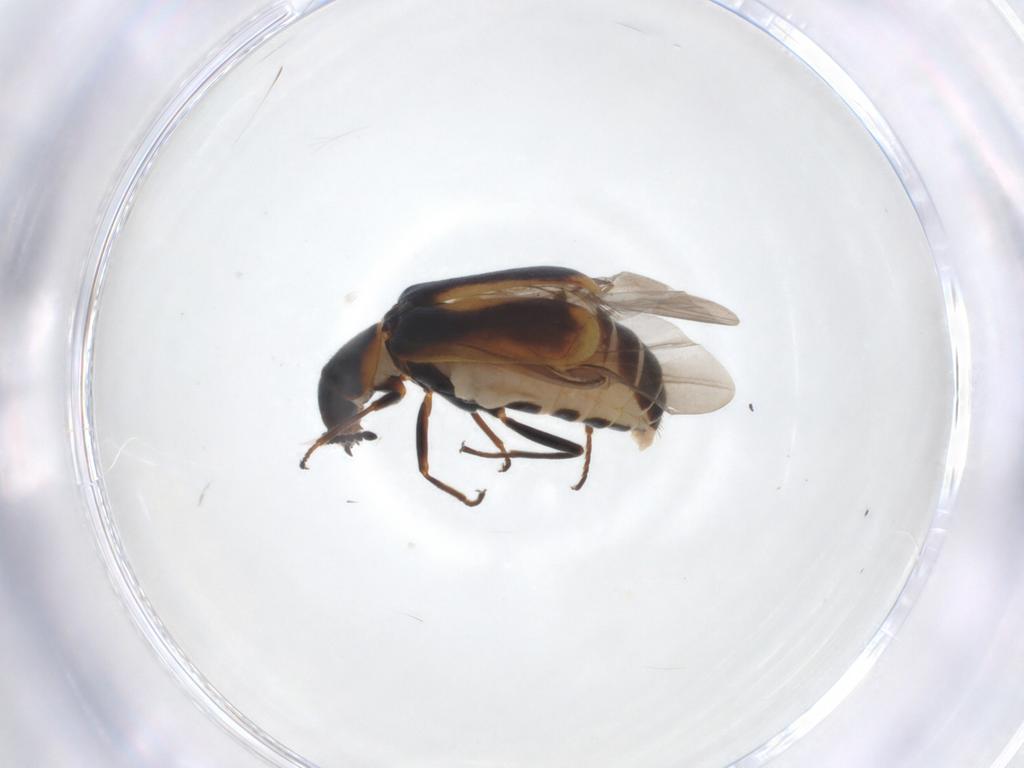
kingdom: Animalia
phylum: Arthropoda
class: Insecta
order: Coleoptera
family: Melyridae
